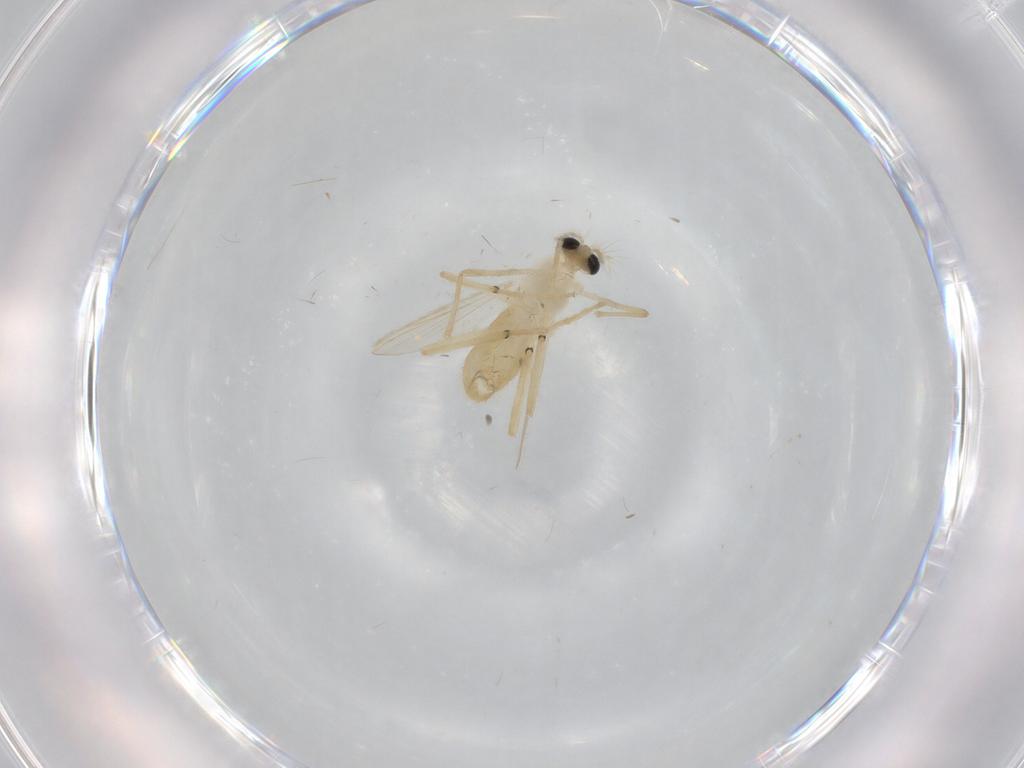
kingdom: Animalia
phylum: Arthropoda
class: Insecta
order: Diptera
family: Chironomidae
